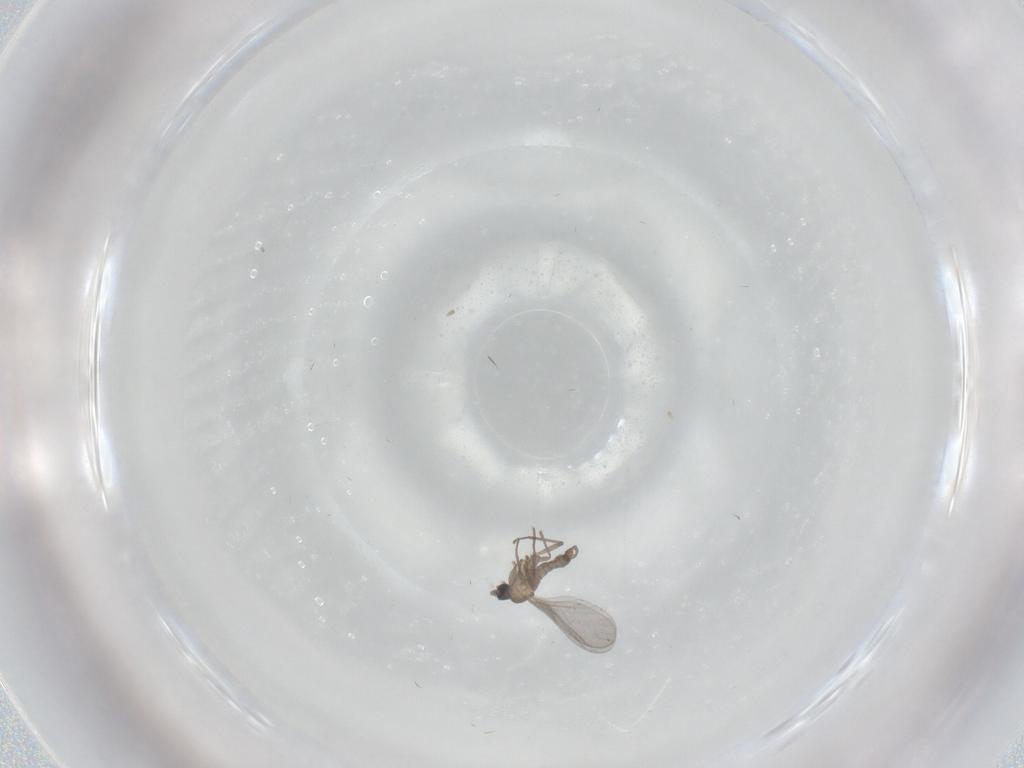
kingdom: Animalia
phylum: Arthropoda
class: Insecta
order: Diptera
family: Sciaridae
